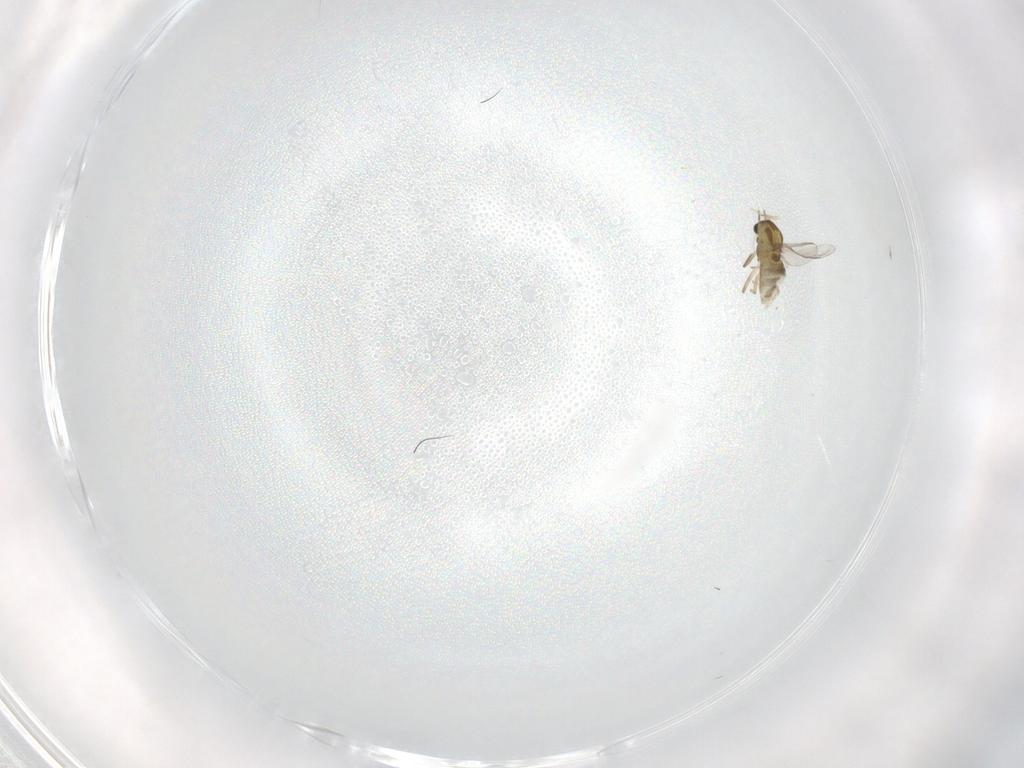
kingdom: Animalia
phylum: Arthropoda
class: Insecta
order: Diptera
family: Chironomidae
